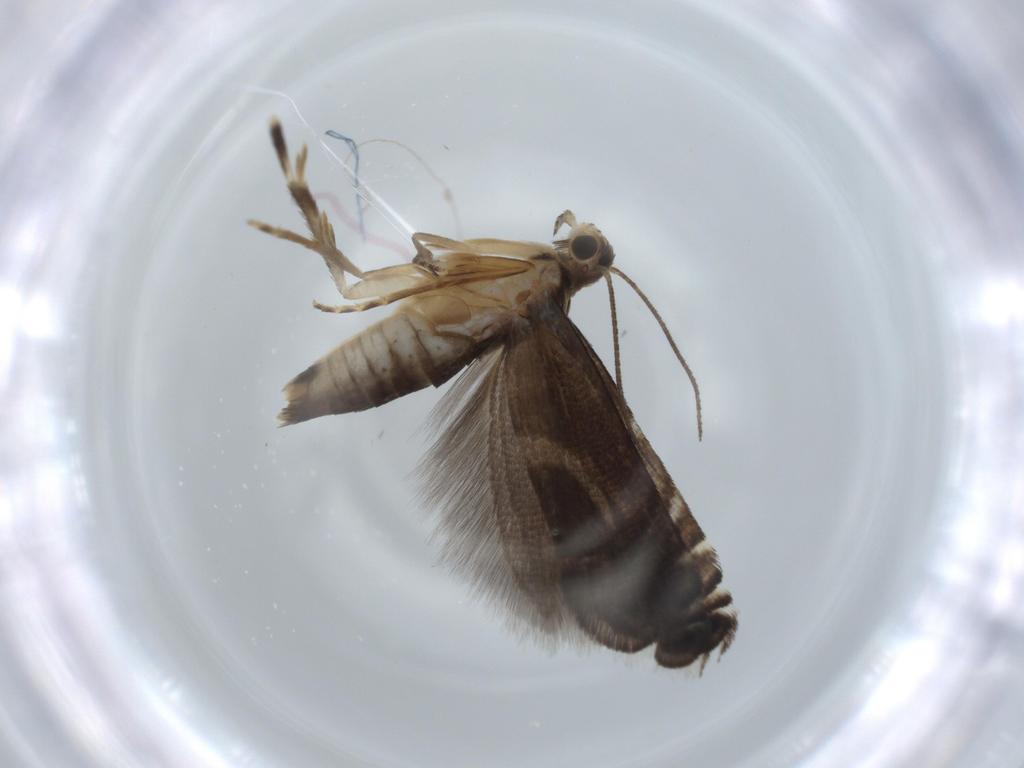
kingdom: Animalia
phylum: Arthropoda
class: Insecta
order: Lepidoptera
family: Glyphipterigidae
